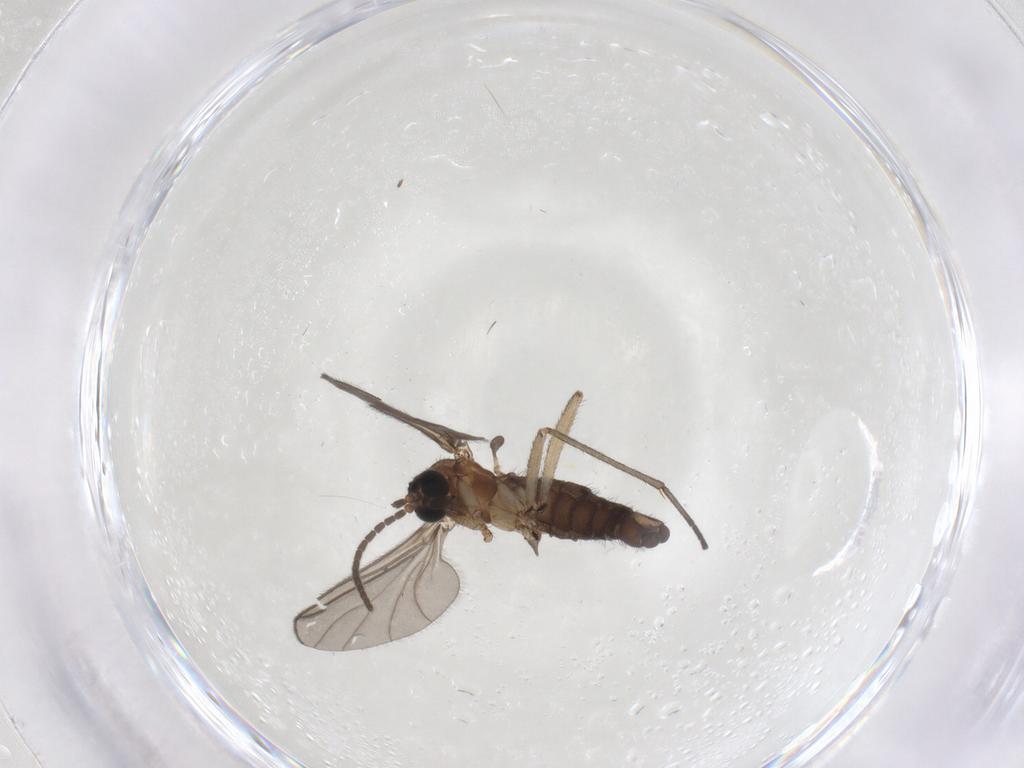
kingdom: Animalia
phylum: Arthropoda
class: Insecta
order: Diptera
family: Sciaridae
